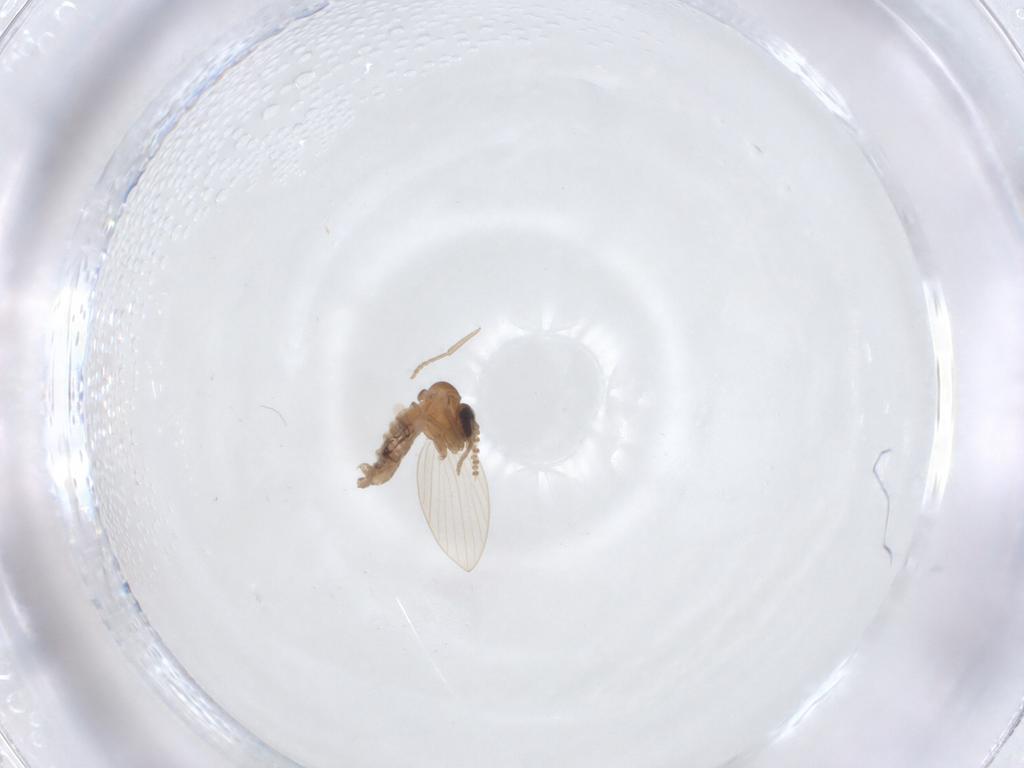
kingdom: Animalia
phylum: Arthropoda
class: Insecta
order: Diptera
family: Psychodidae
